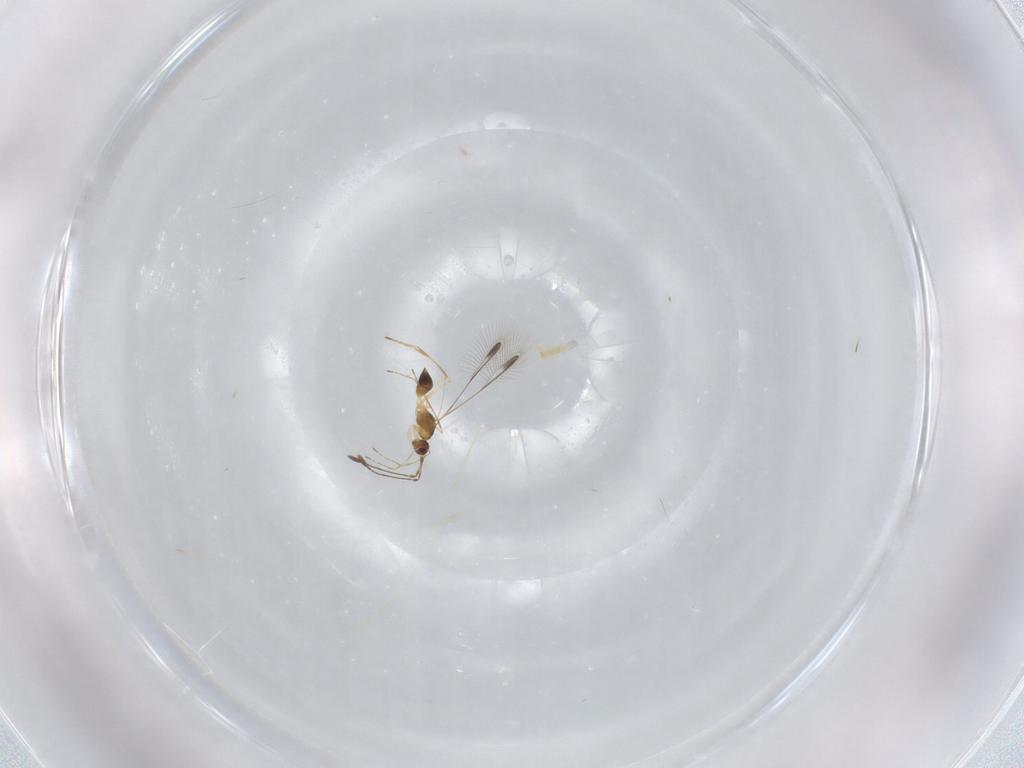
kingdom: Animalia
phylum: Arthropoda
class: Insecta
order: Hymenoptera
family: Mymaridae
